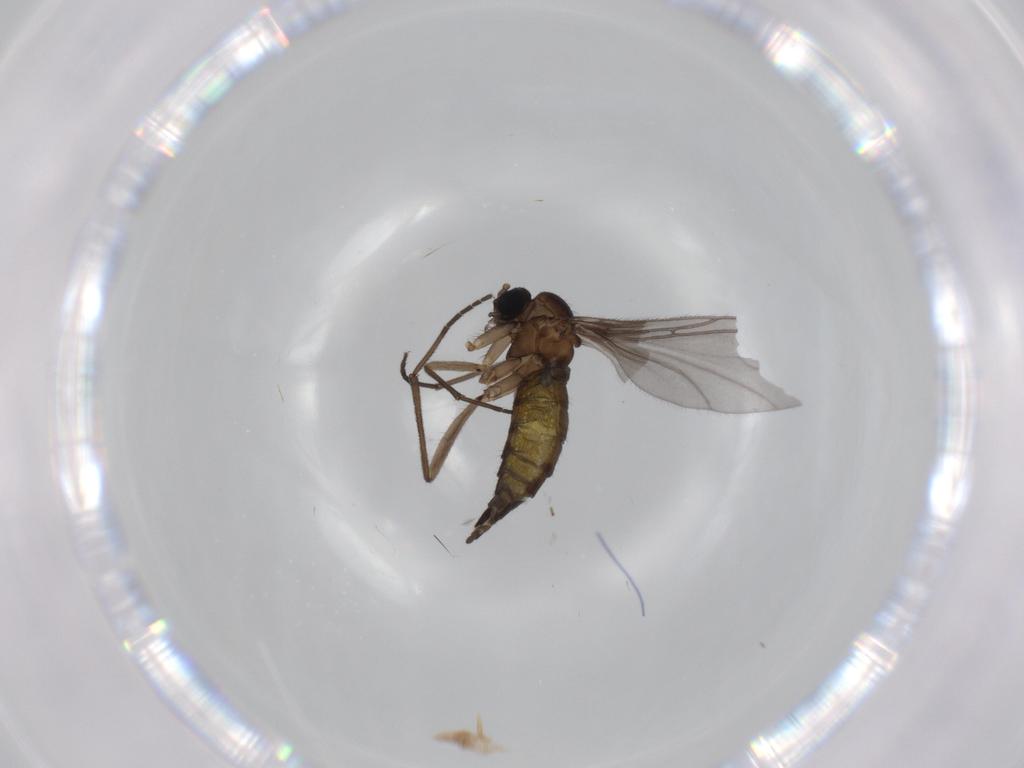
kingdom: Animalia
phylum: Arthropoda
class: Insecta
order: Diptera
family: Sciaridae
